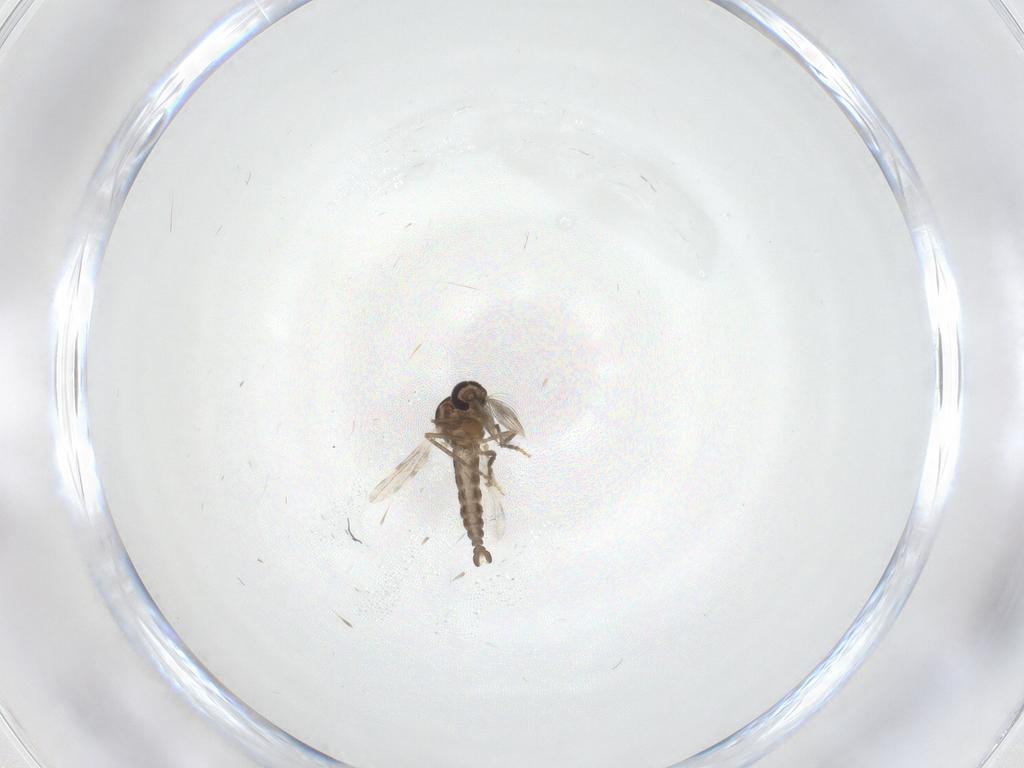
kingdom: Animalia
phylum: Arthropoda
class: Insecta
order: Diptera
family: Ceratopogonidae
